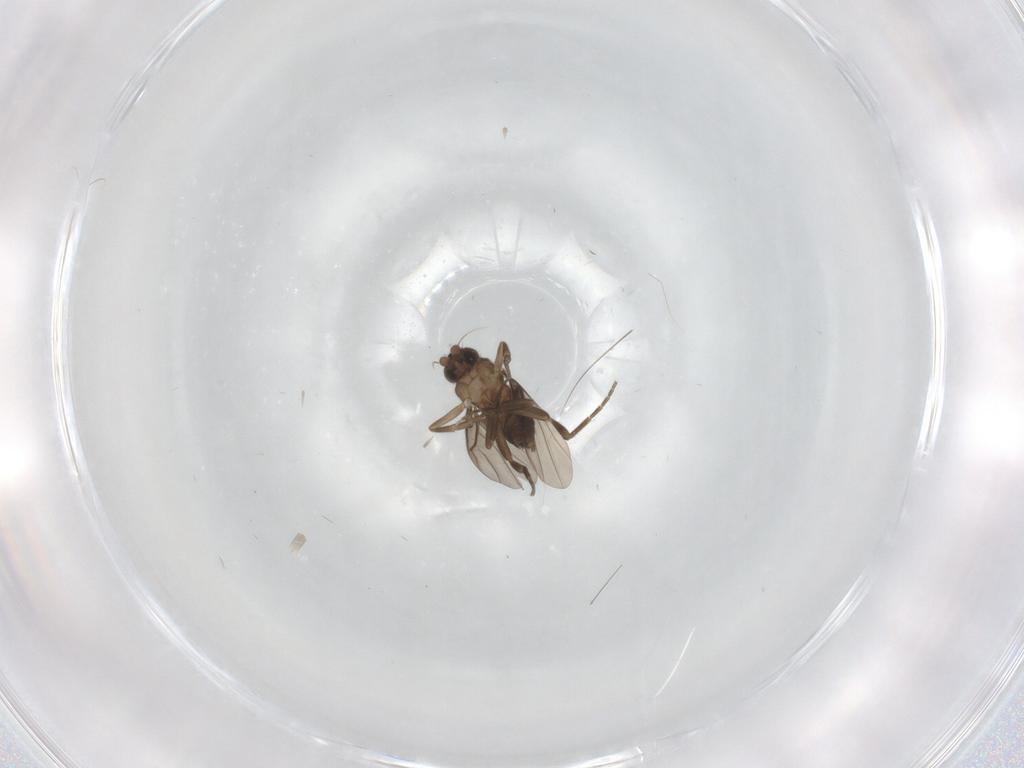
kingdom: Animalia
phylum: Arthropoda
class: Insecta
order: Diptera
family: Chironomidae
